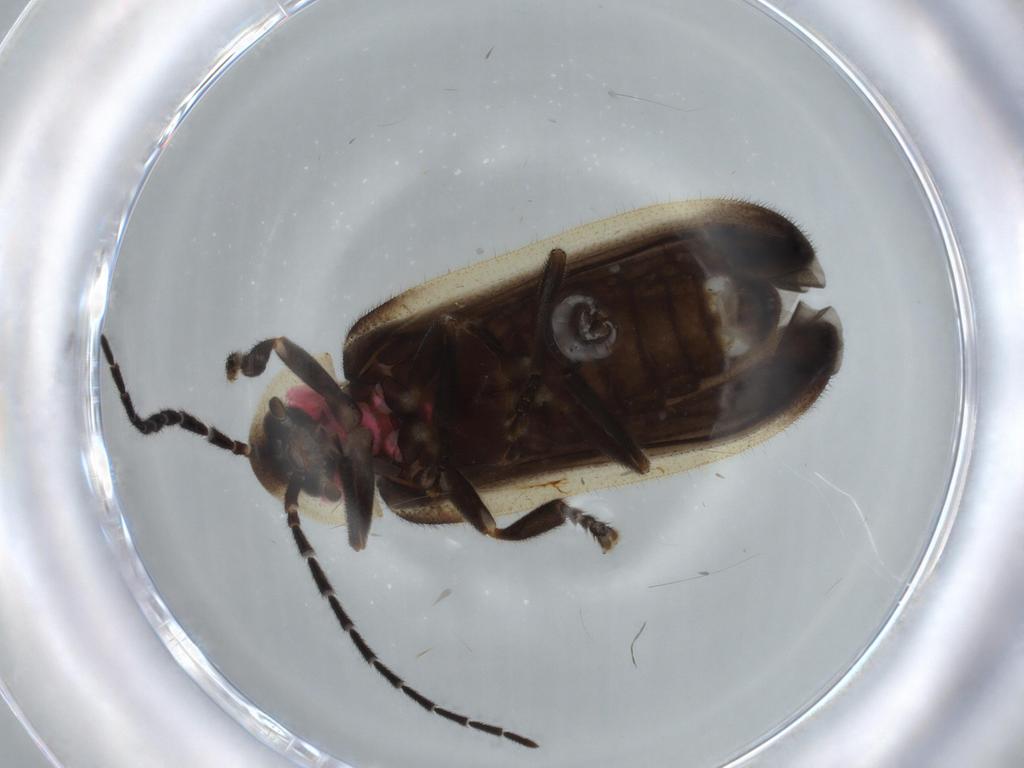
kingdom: Animalia
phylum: Arthropoda
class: Insecta
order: Coleoptera
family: Lampyridae
